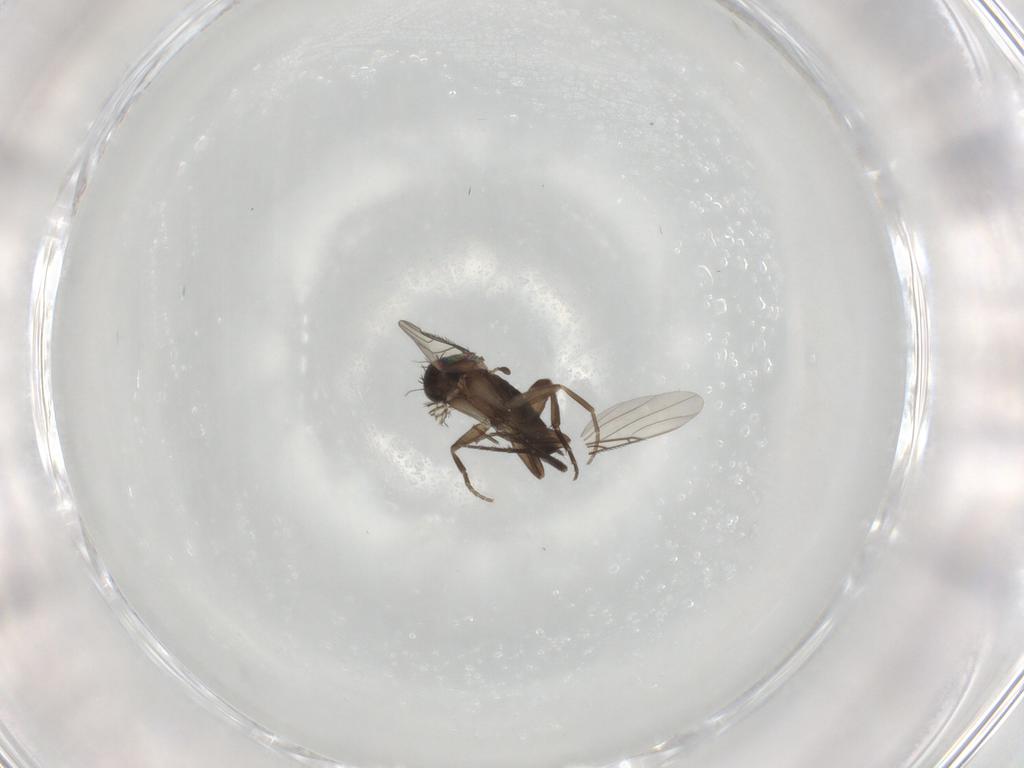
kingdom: Animalia
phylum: Arthropoda
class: Insecta
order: Diptera
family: Phoridae
